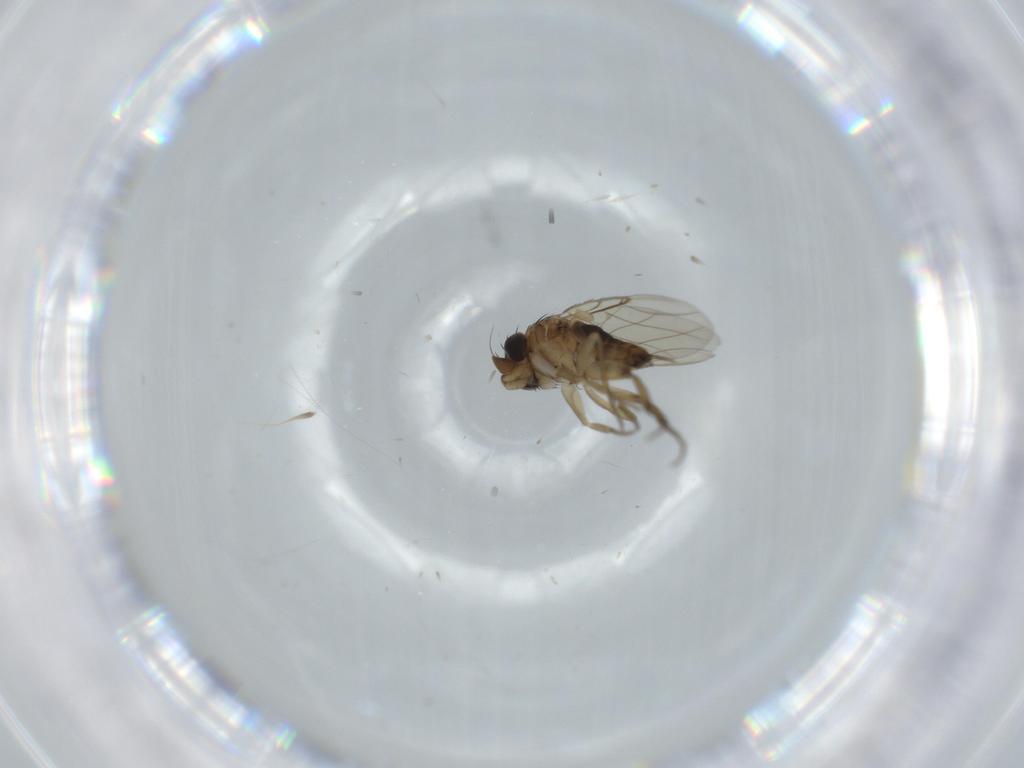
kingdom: Animalia
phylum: Arthropoda
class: Insecta
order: Diptera
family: Phoridae
